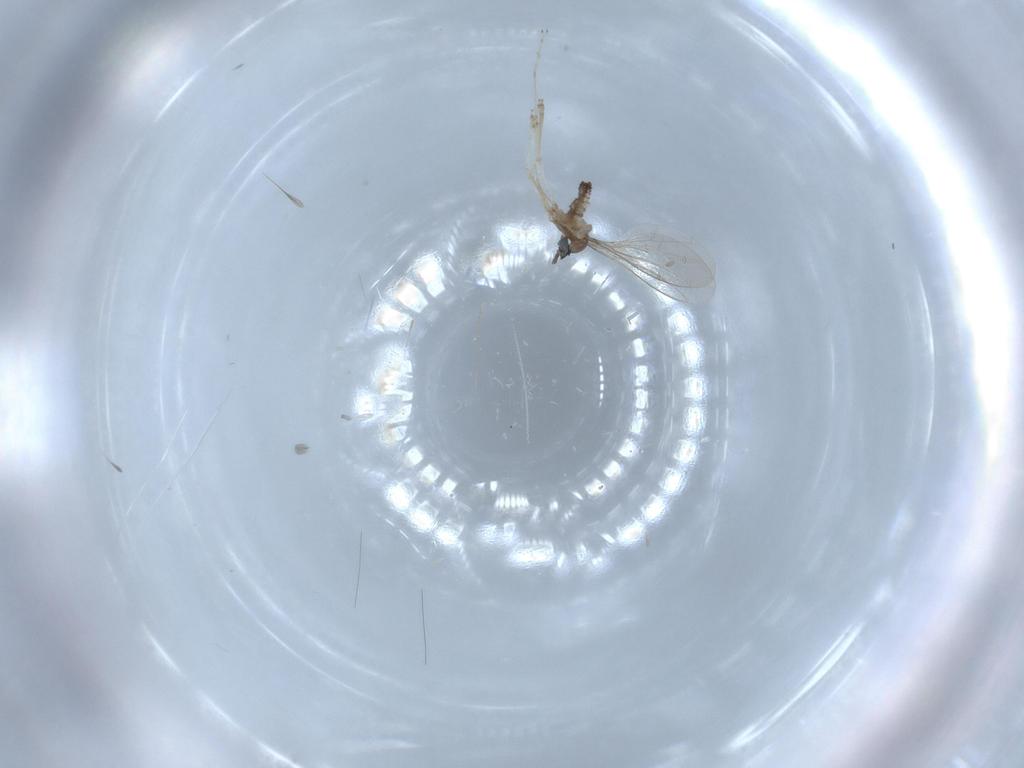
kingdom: Animalia
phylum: Arthropoda
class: Insecta
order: Diptera
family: Cecidomyiidae
